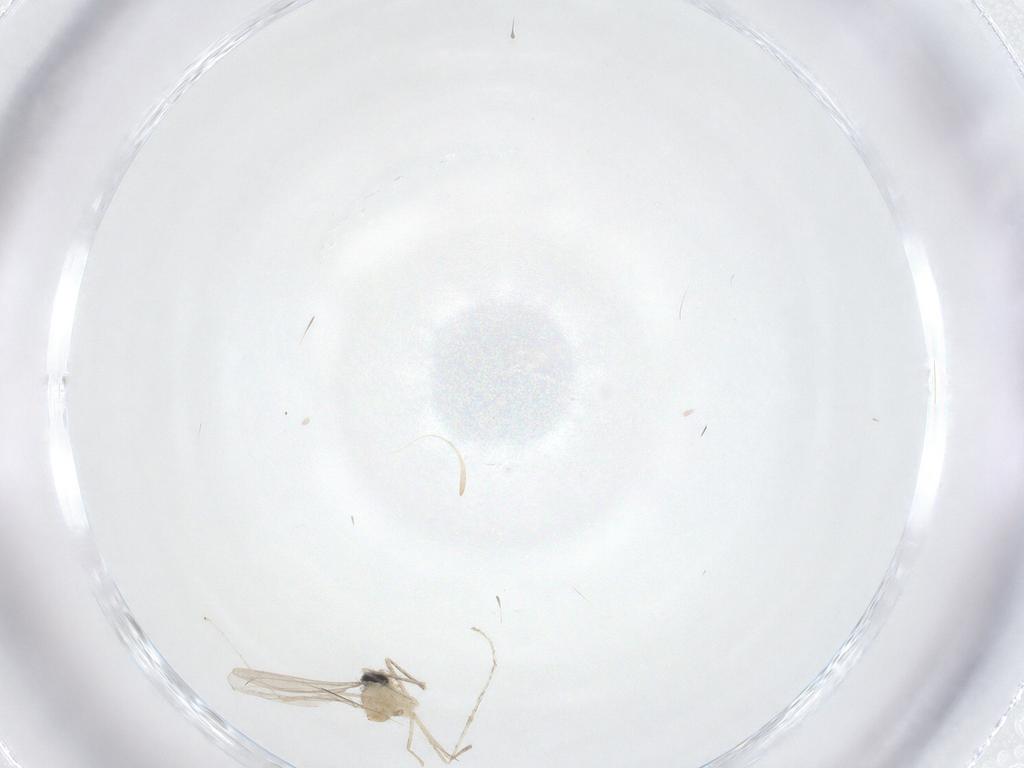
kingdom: Animalia
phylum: Arthropoda
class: Insecta
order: Diptera
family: Cecidomyiidae
